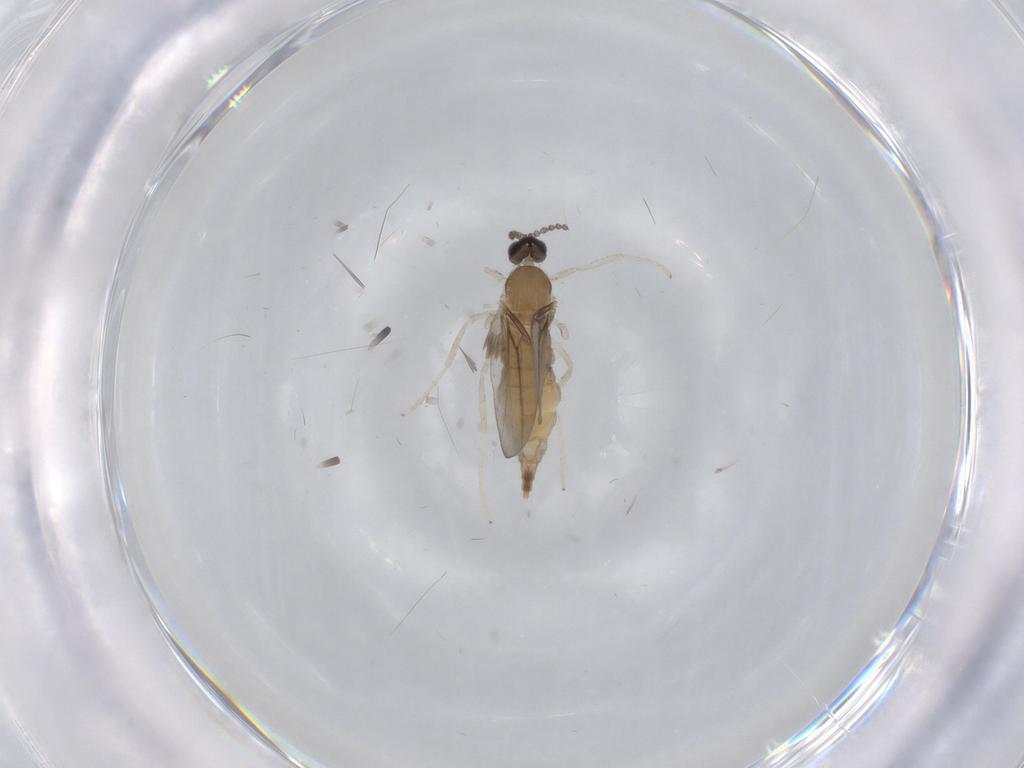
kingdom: Animalia
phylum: Arthropoda
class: Insecta
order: Diptera
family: Cecidomyiidae
